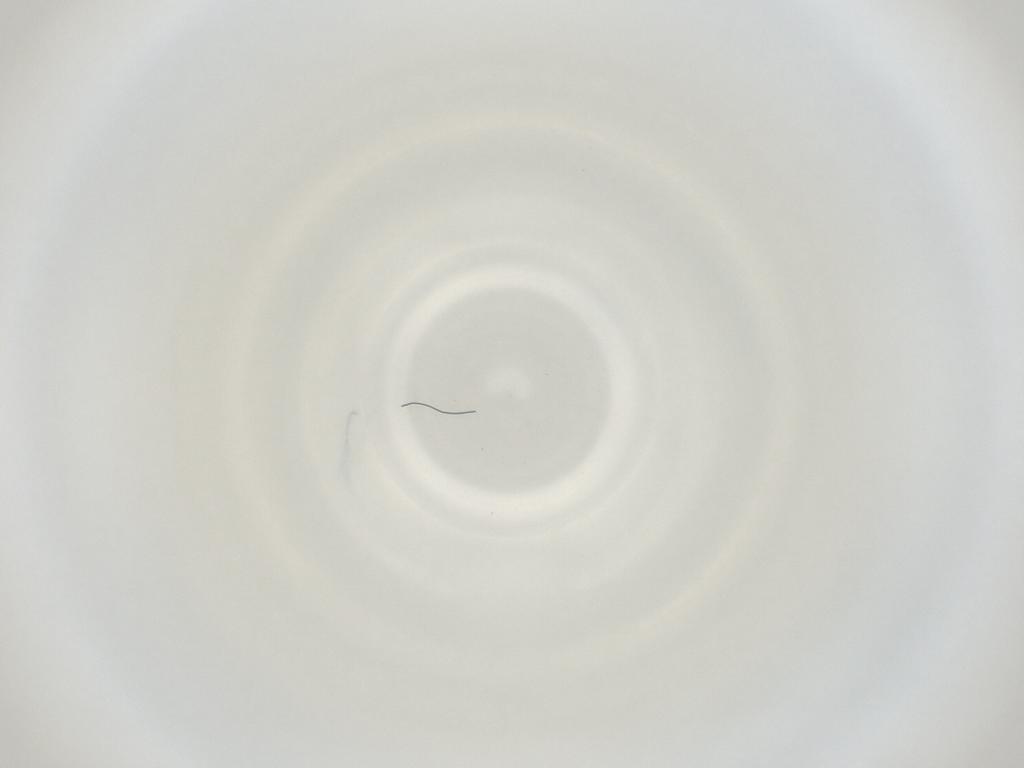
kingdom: Animalia
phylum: Arthropoda
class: Insecta
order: Diptera
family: Cecidomyiidae
